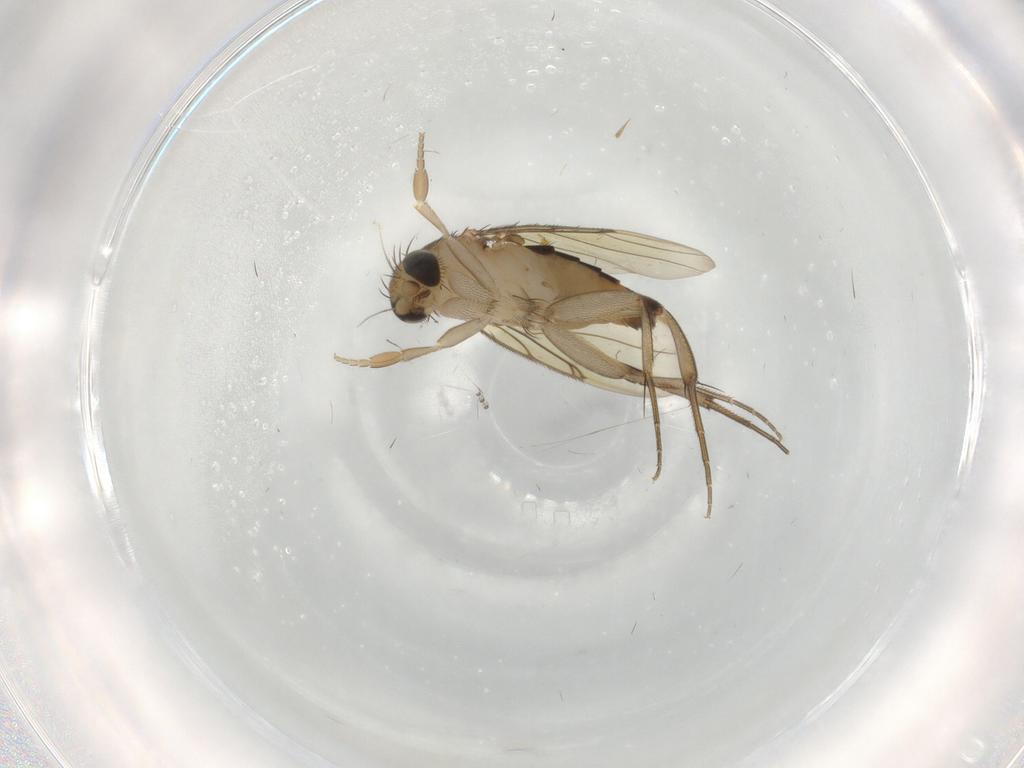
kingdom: Animalia
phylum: Arthropoda
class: Insecta
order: Diptera
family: Phoridae
